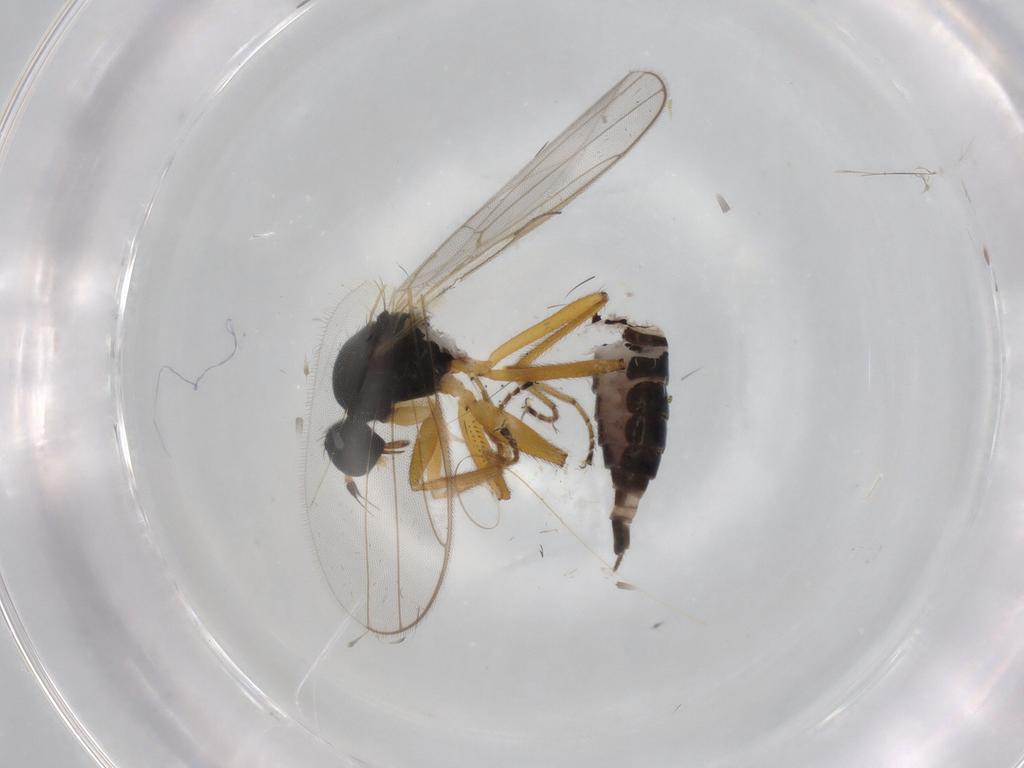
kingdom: Animalia
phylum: Arthropoda
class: Insecta
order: Diptera
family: Hybotidae
